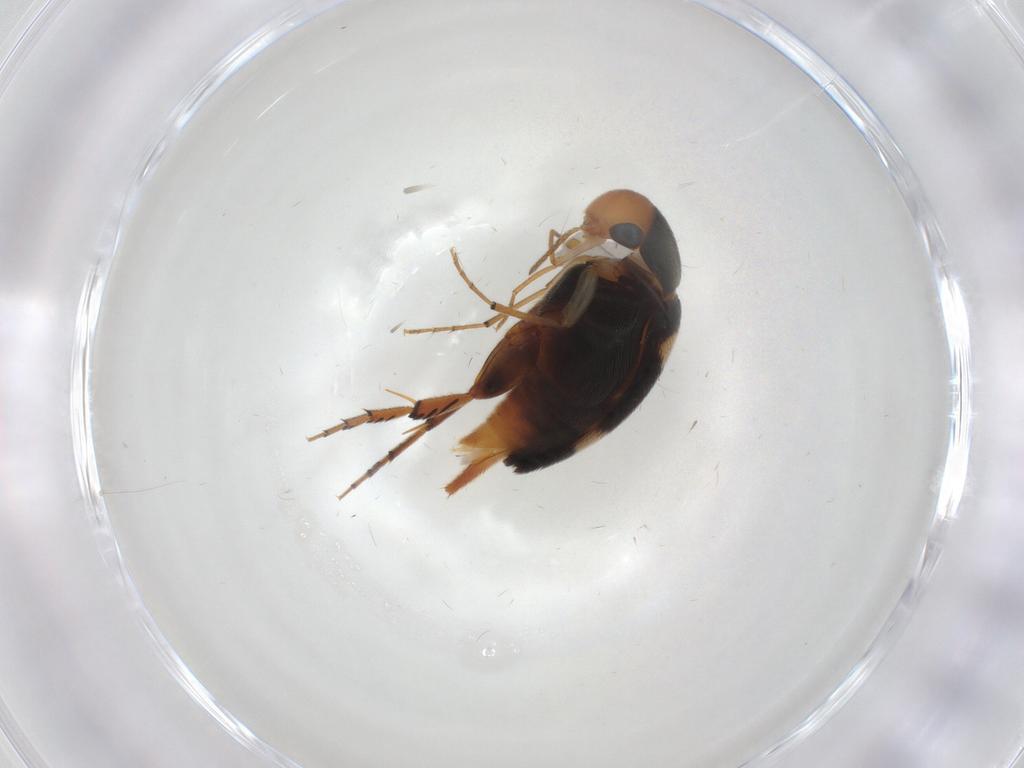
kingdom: Animalia
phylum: Arthropoda
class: Insecta
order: Coleoptera
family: Mordellidae
